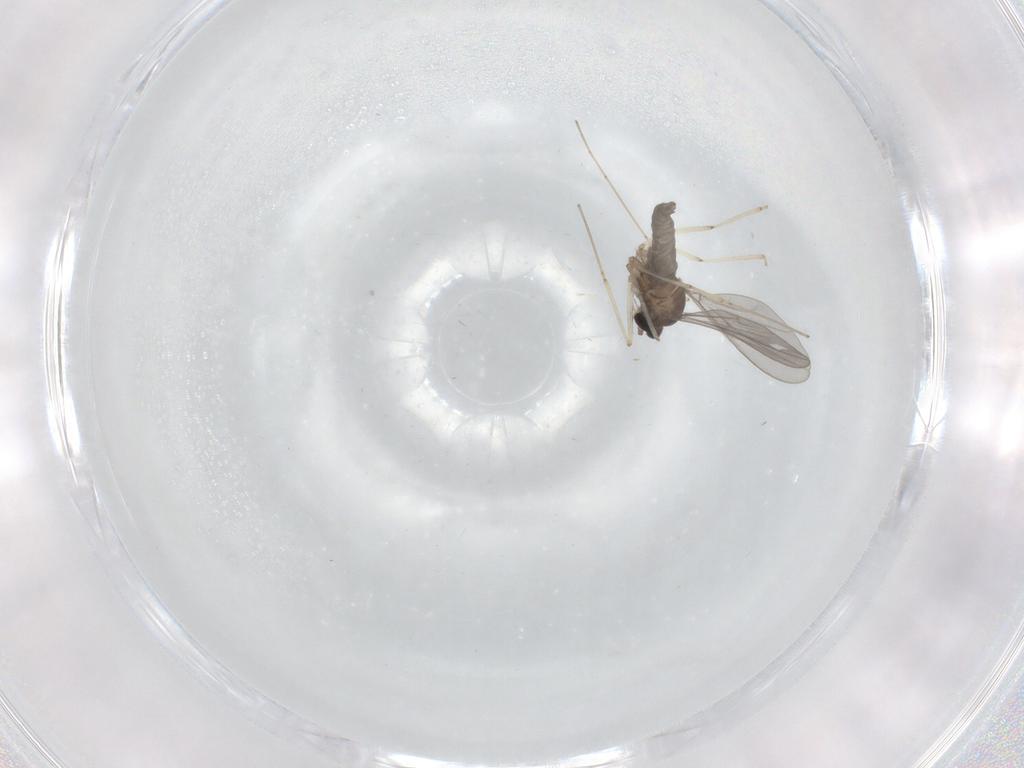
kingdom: Animalia
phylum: Arthropoda
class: Insecta
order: Diptera
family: Cecidomyiidae
